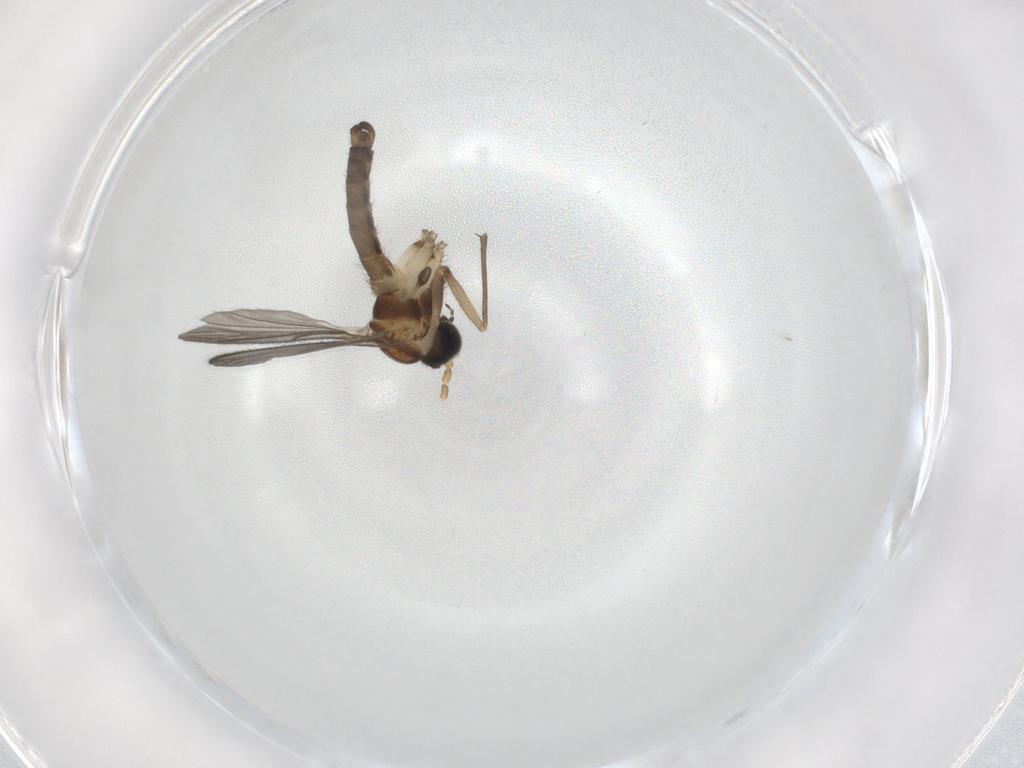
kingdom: Animalia
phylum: Arthropoda
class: Insecta
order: Diptera
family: Sciaridae
